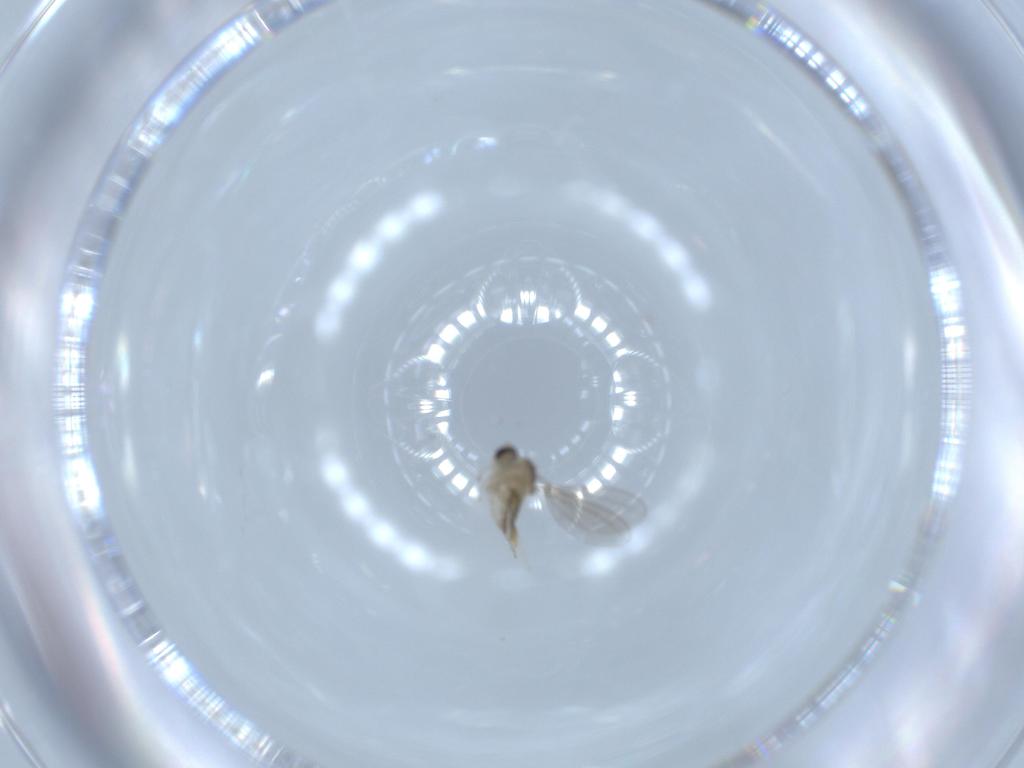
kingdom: Animalia
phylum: Arthropoda
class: Insecta
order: Diptera
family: Cecidomyiidae
